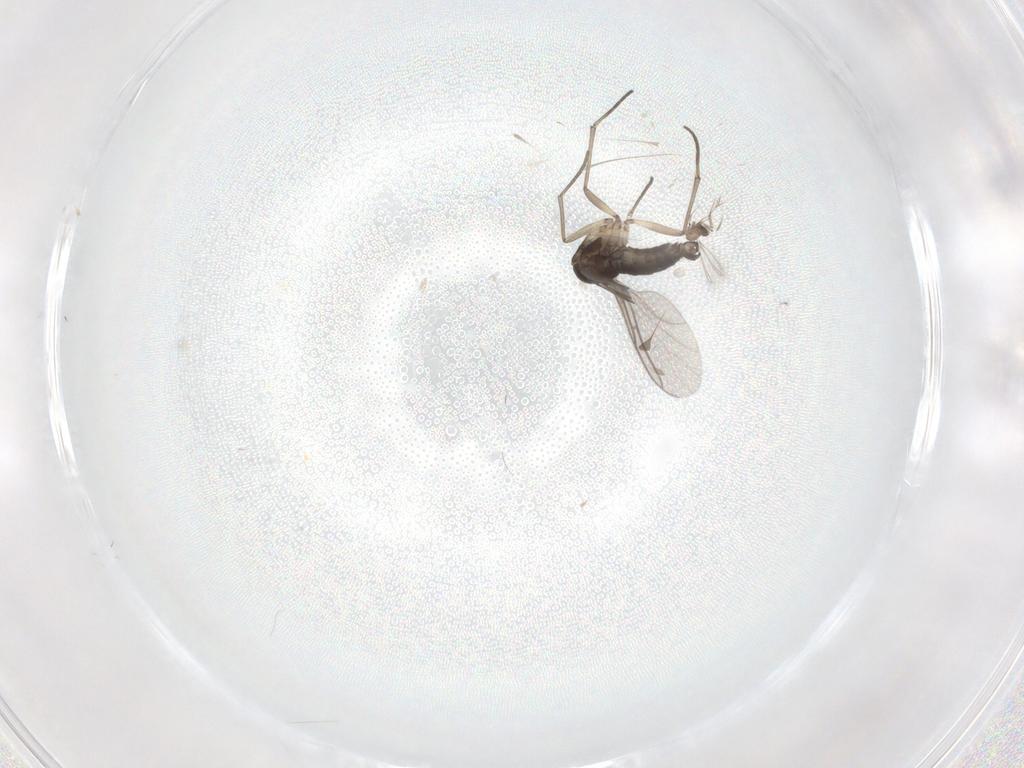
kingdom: Animalia
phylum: Arthropoda
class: Insecta
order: Diptera
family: Sciaridae
